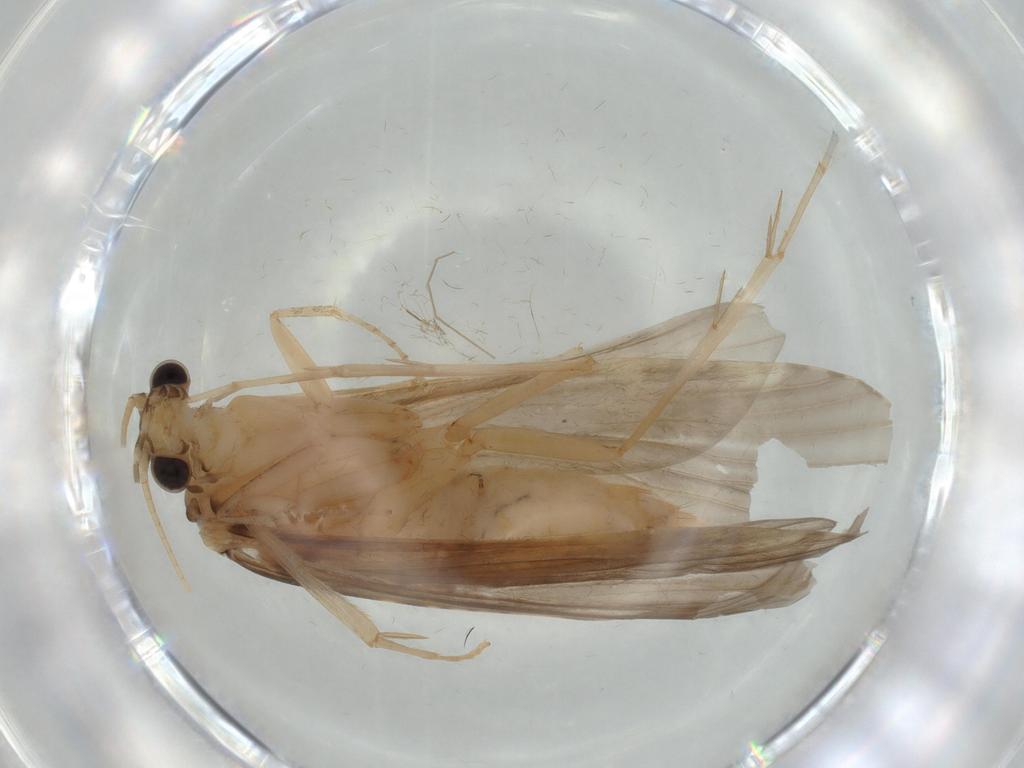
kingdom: Animalia
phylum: Arthropoda
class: Insecta
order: Trichoptera
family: Ecnomidae
